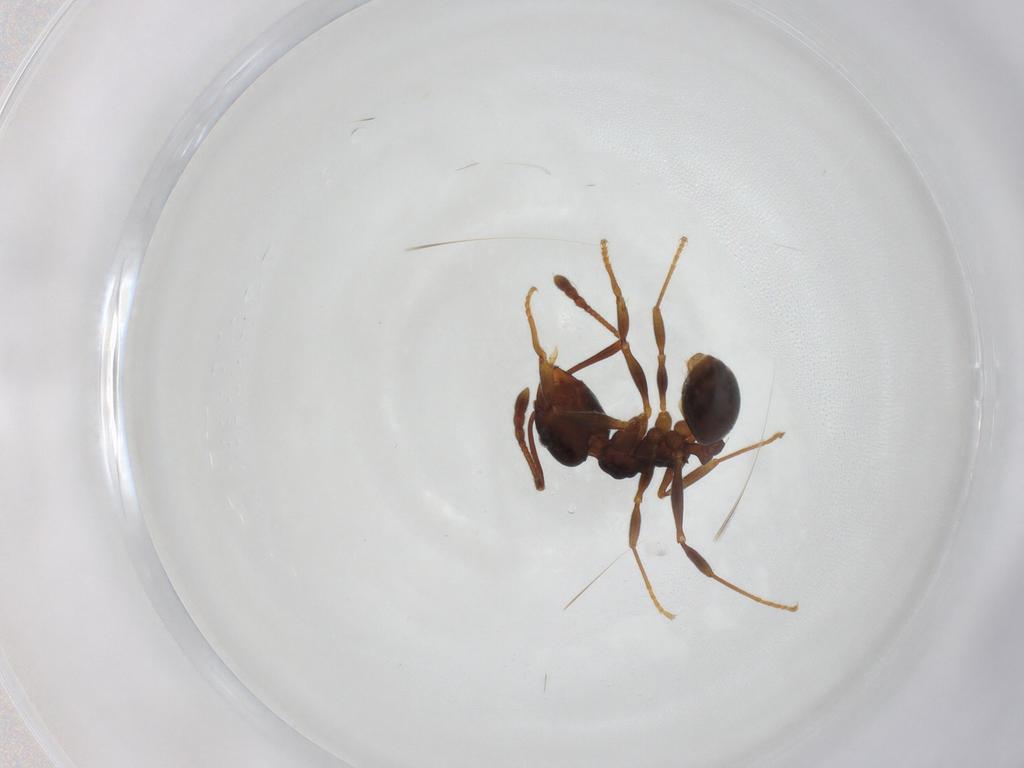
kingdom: Animalia
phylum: Arthropoda
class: Insecta
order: Hymenoptera
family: Formicidae
